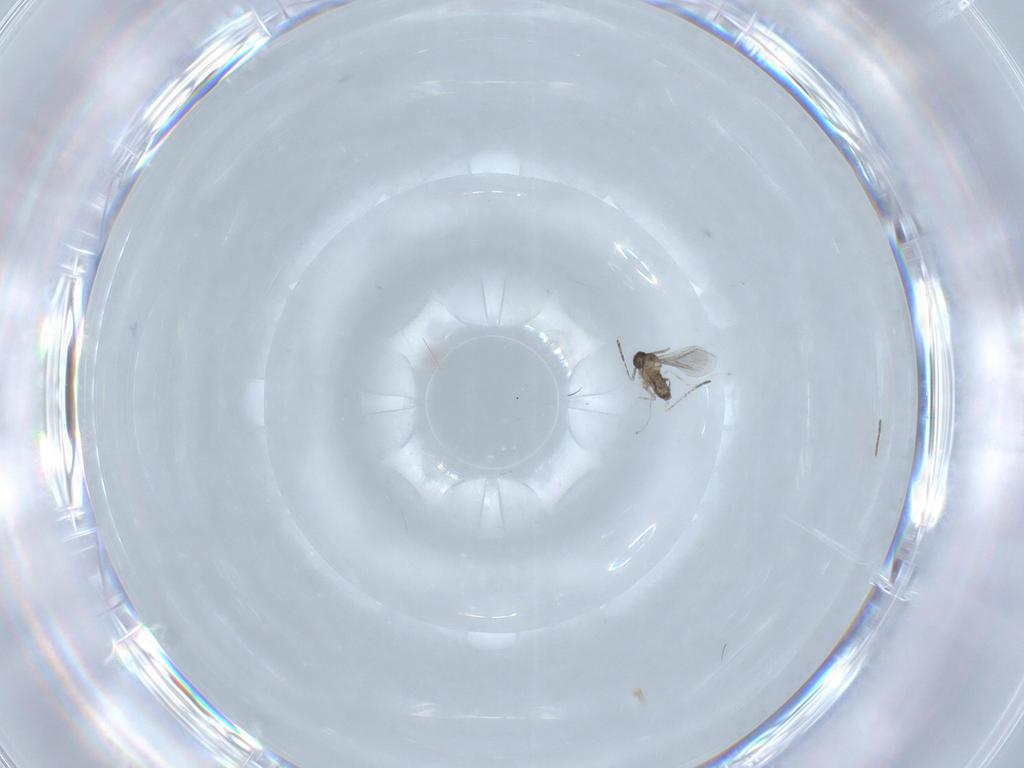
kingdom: Animalia
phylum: Arthropoda
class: Insecta
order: Diptera
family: Cecidomyiidae
